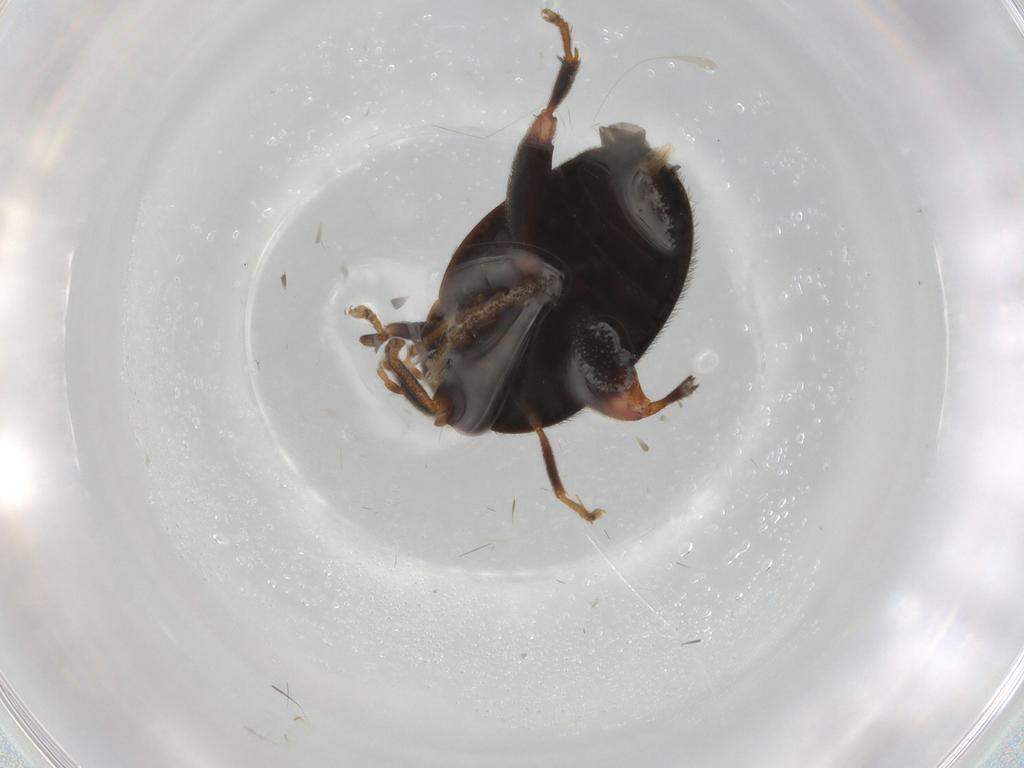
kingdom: Animalia
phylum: Arthropoda
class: Insecta
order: Coleoptera
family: Scirtidae
